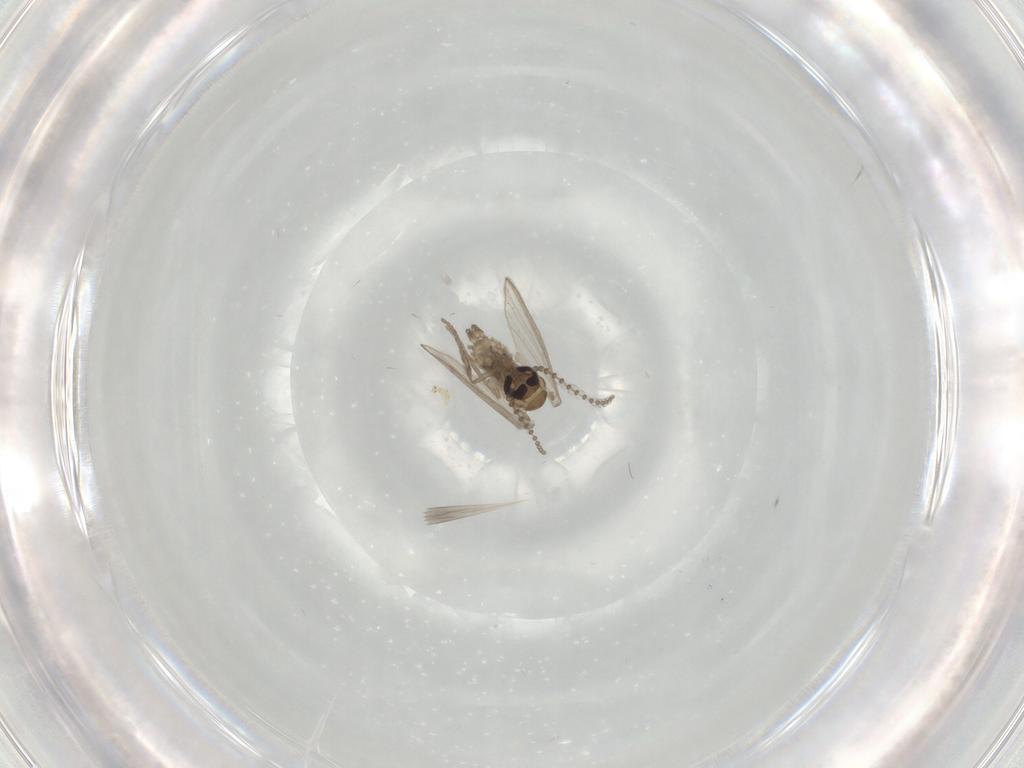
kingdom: Animalia
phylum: Arthropoda
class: Insecta
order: Diptera
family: Psychodidae
